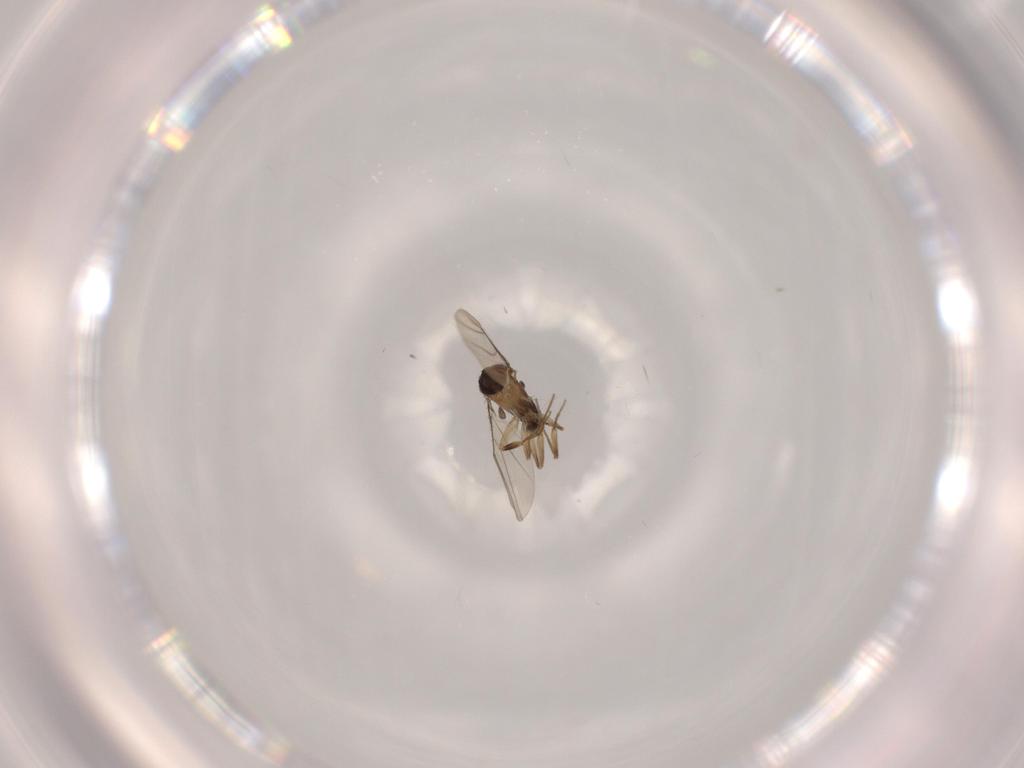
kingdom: Animalia
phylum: Arthropoda
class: Insecta
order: Diptera
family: Phoridae
